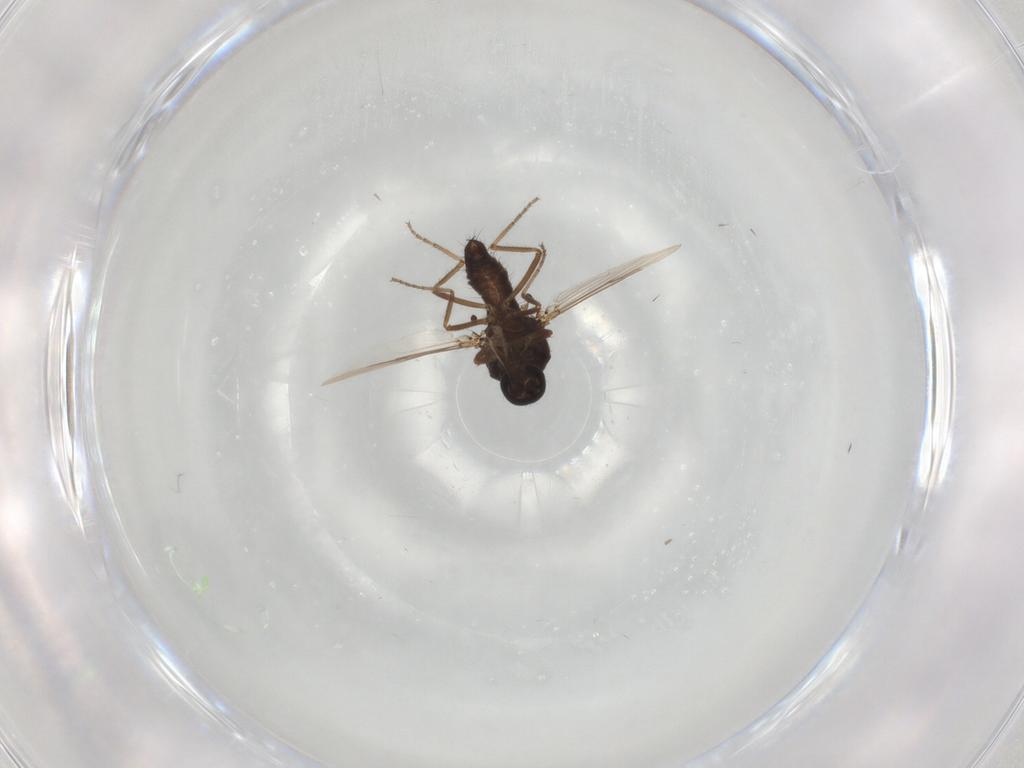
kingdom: Animalia
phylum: Arthropoda
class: Insecta
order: Diptera
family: Ceratopogonidae
